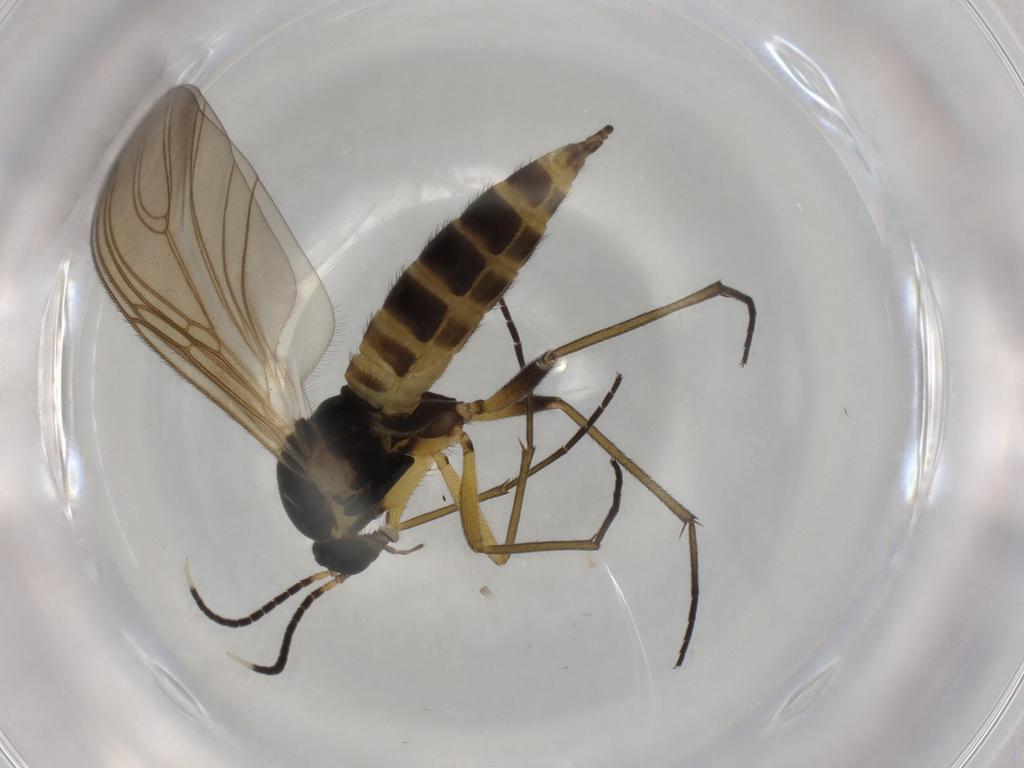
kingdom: Animalia
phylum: Arthropoda
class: Insecta
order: Diptera
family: Sciaridae
